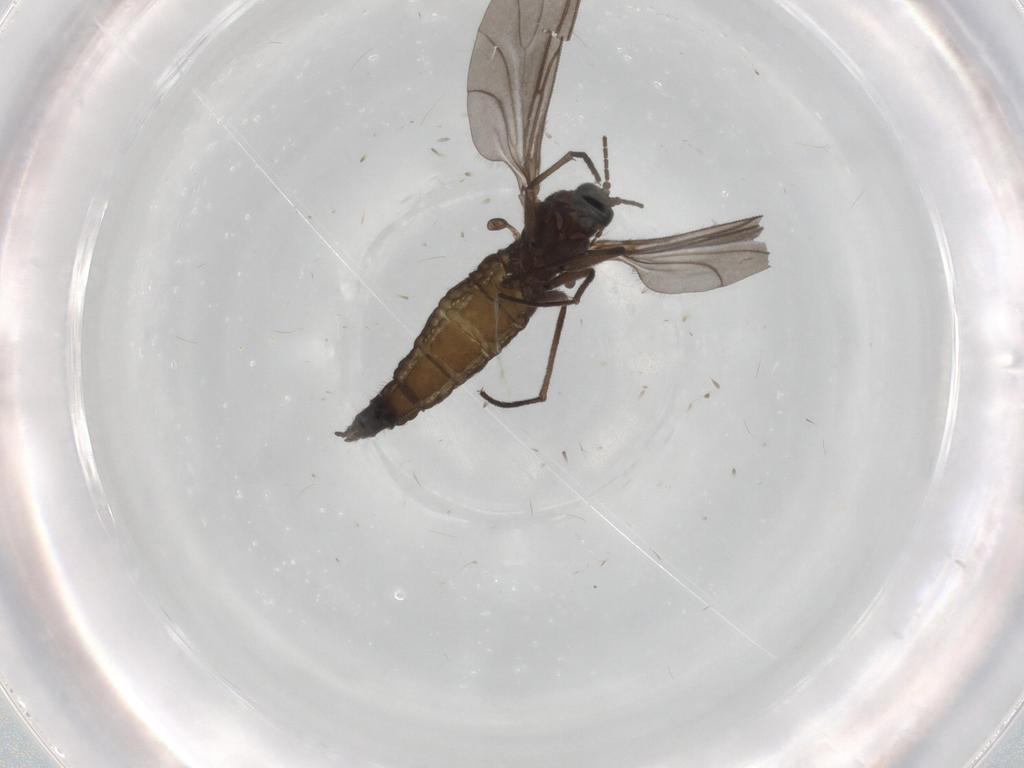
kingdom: Animalia
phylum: Arthropoda
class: Insecta
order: Diptera
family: Sciaridae
